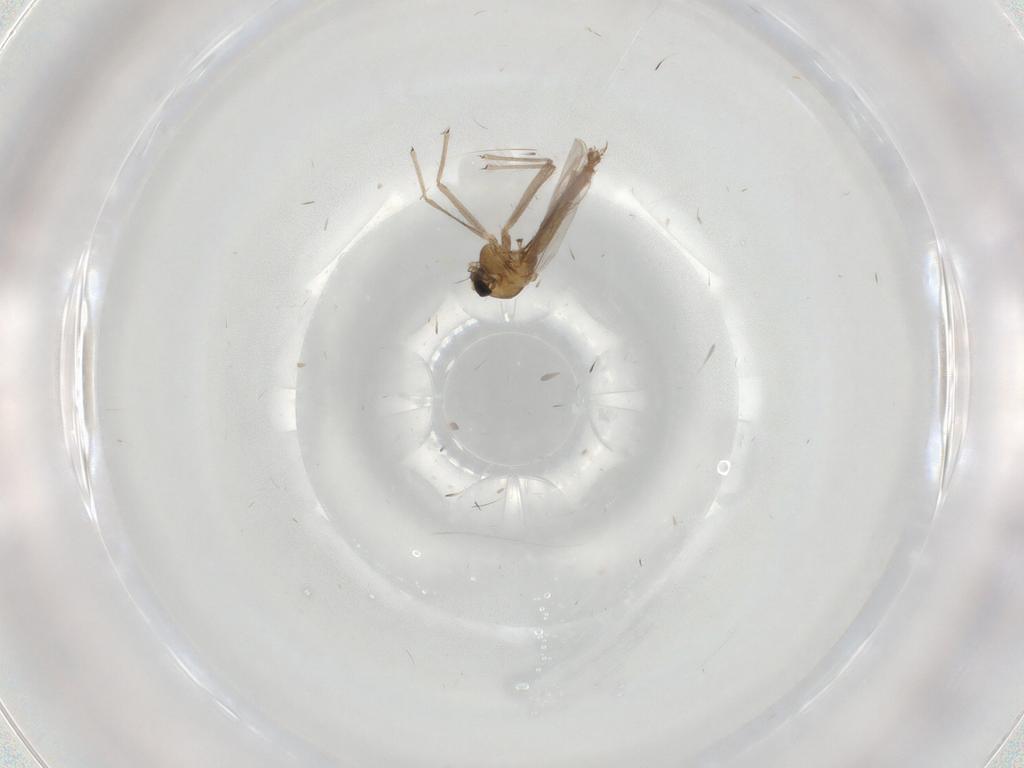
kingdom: Animalia
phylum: Arthropoda
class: Insecta
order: Diptera
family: Chironomidae
